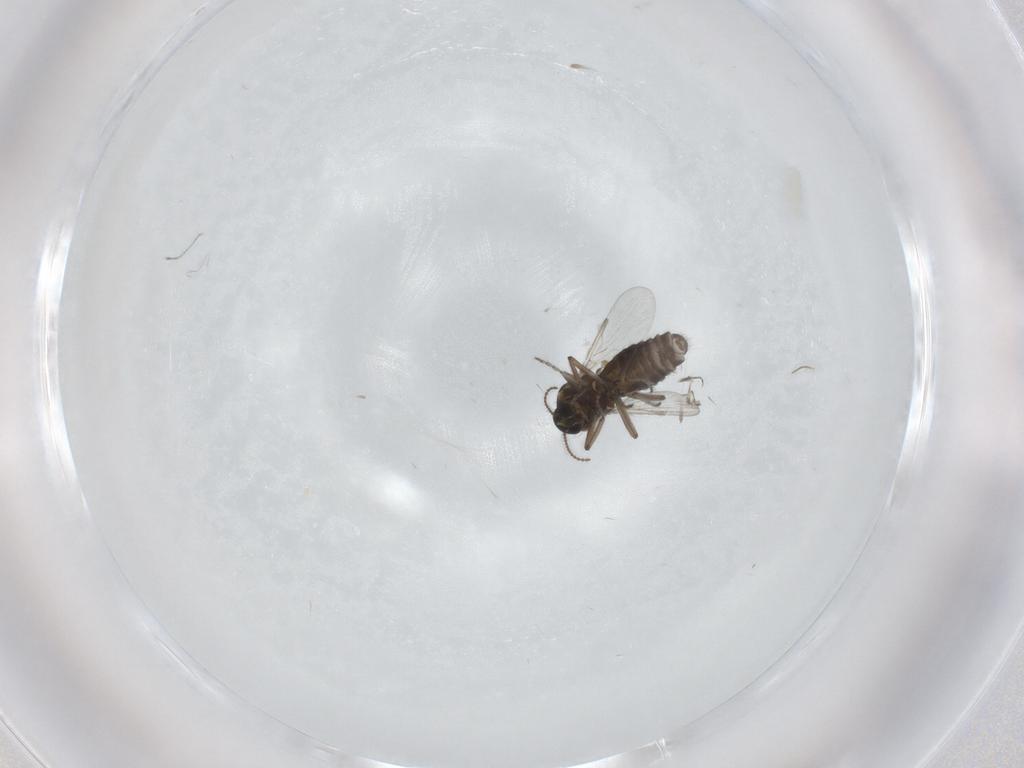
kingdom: Animalia
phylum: Arthropoda
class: Insecta
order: Diptera
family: Ceratopogonidae
